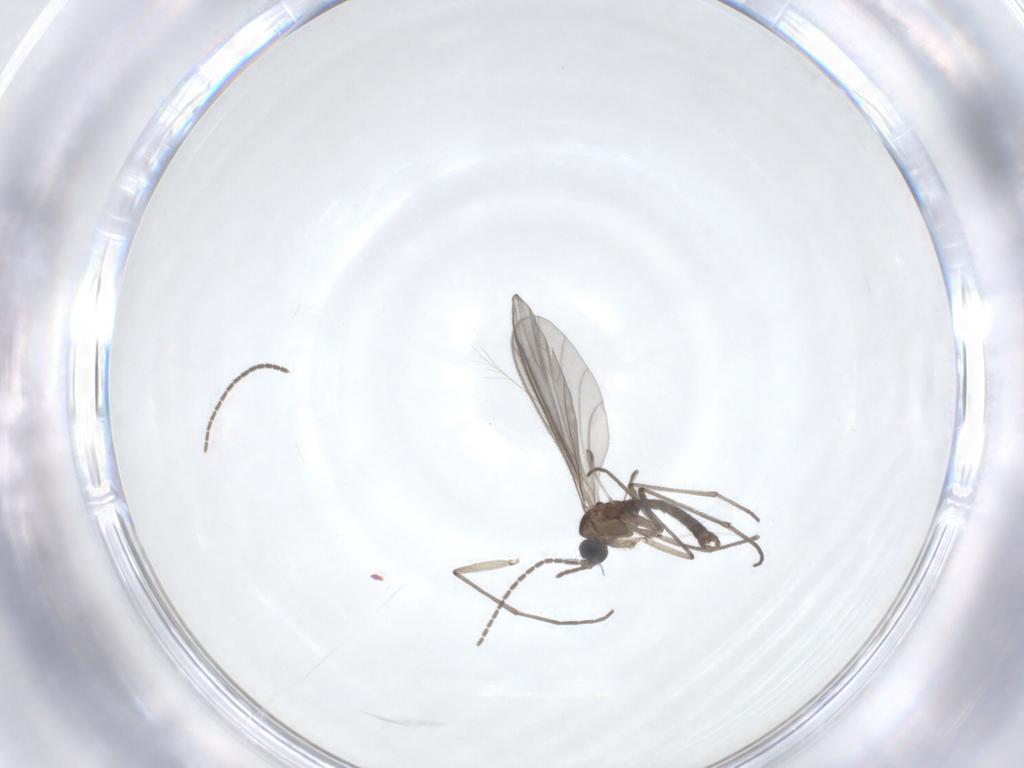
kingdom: Animalia
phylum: Arthropoda
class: Insecta
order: Diptera
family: Sciaridae
